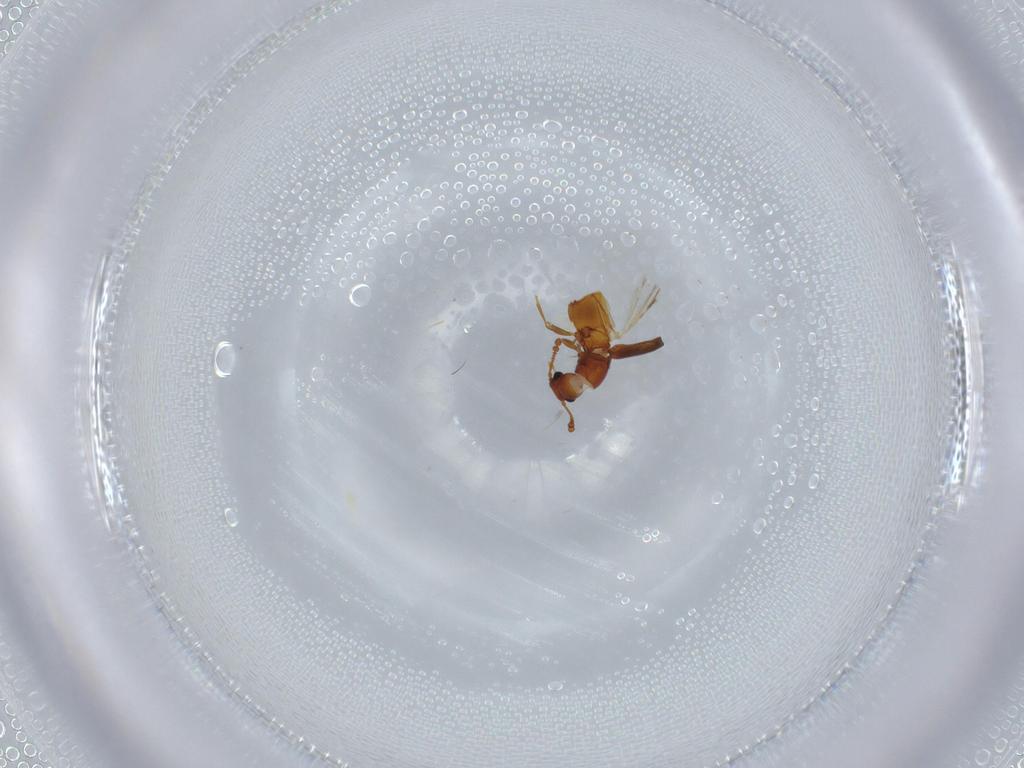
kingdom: Animalia
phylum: Arthropoda
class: Insecta
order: Coleoptera
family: Staphylinidae
